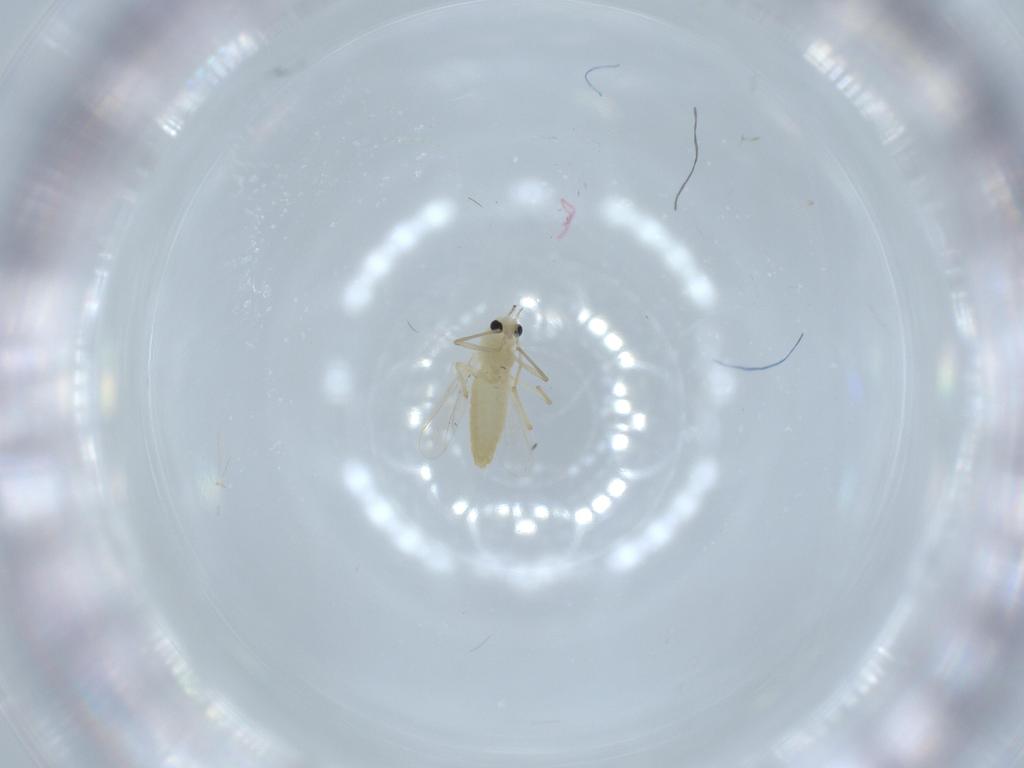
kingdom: Animalia
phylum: Arthropoda
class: Insecta
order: Diptera
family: Chironomidae
